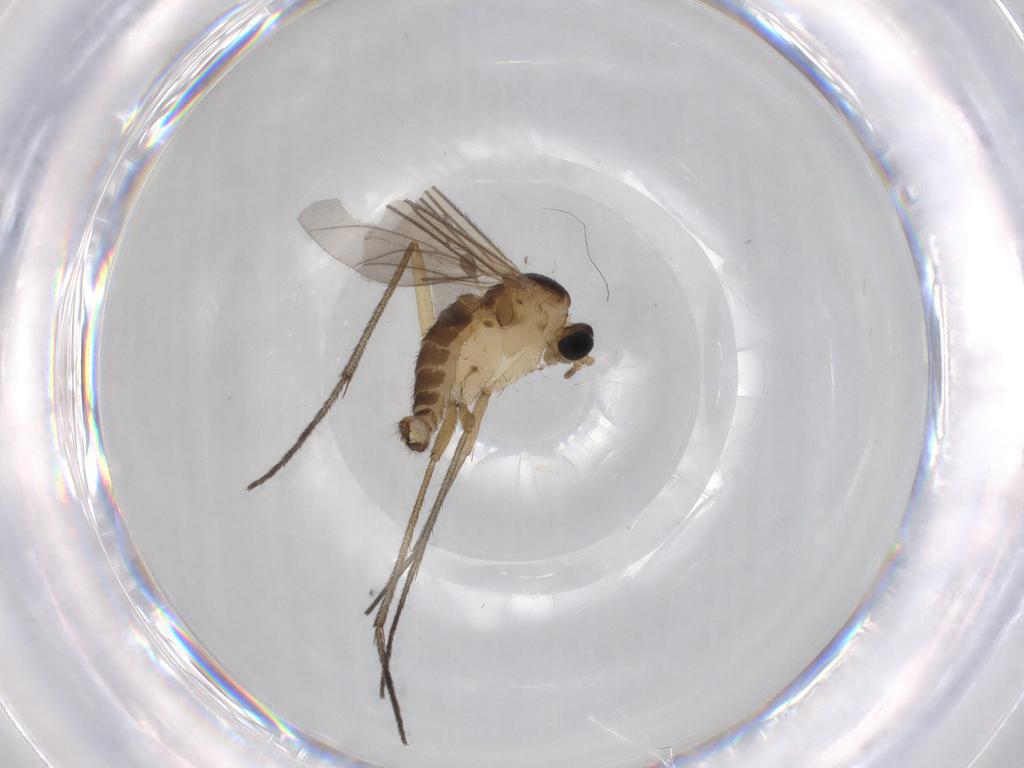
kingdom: Animalia
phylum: Arthropoda
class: Insecta
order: Diptera
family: Sciaridae
